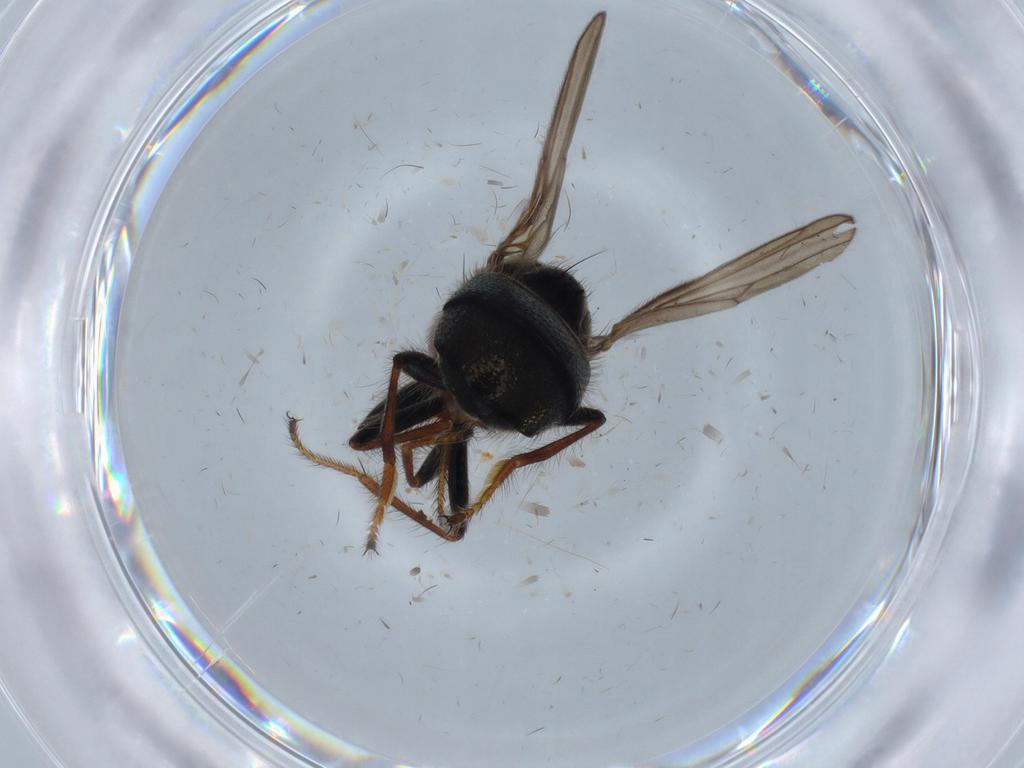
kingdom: Animalia
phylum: Arthropoda
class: Insecta
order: Diptera
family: Ephydridae
